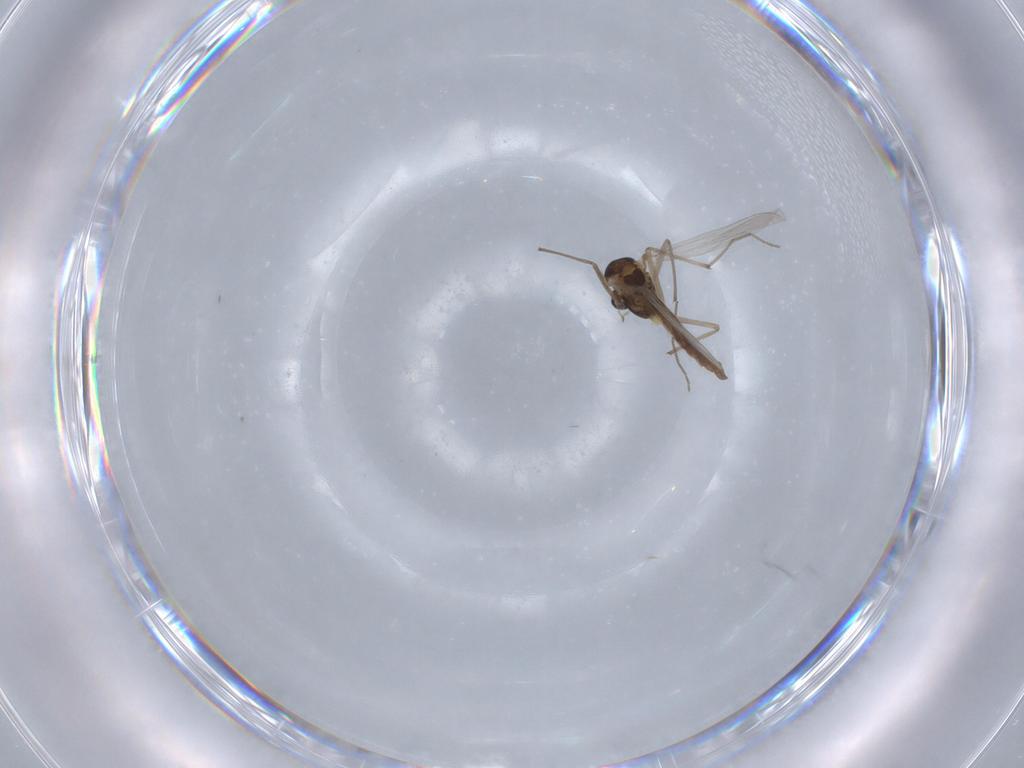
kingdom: Animalia
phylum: Arthropoda
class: Insecta
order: Diptera
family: Chironomidae
